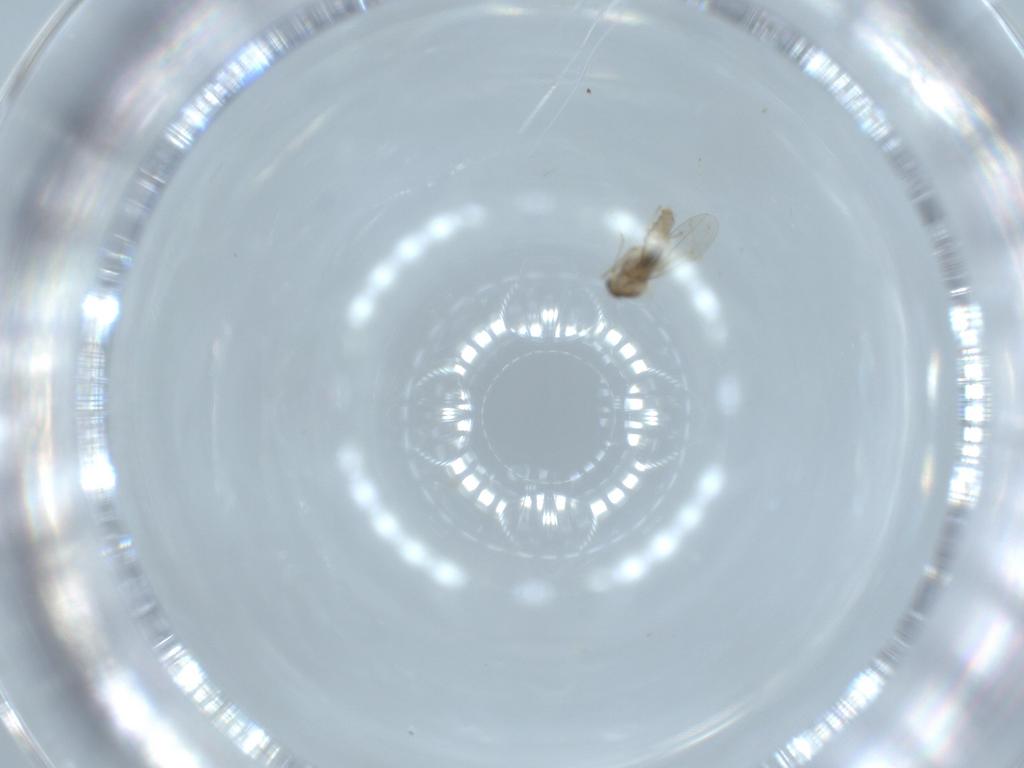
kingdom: Animalia
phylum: Arthropoda
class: Insecta
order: Diptera
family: Cecidomyiidae
